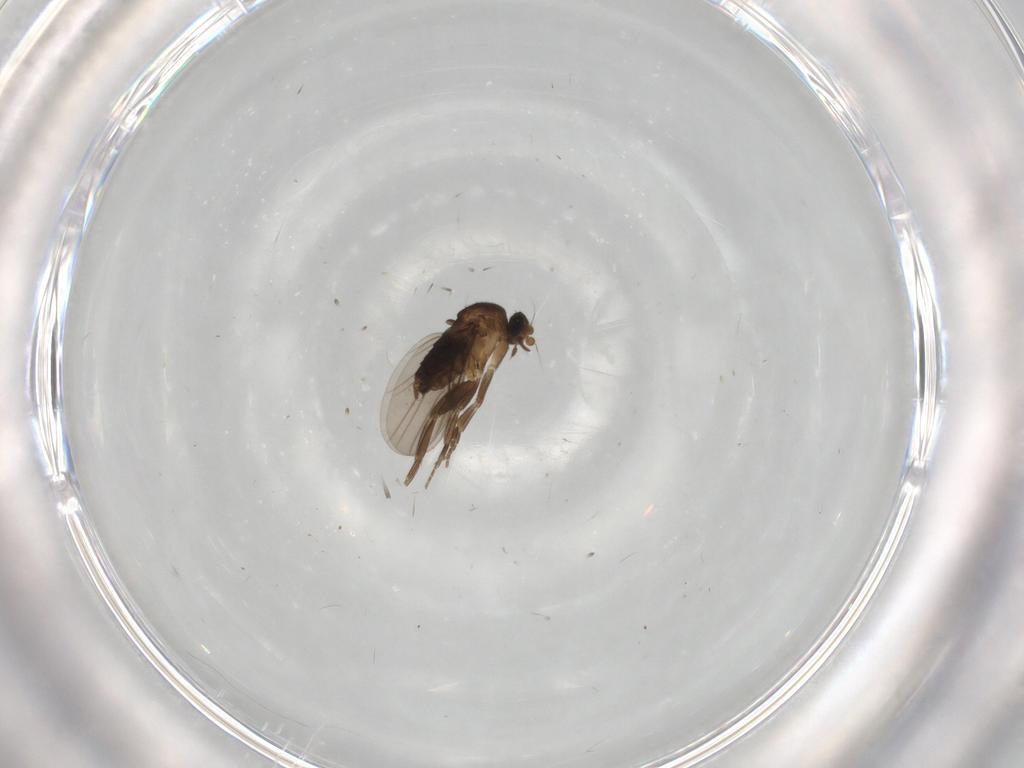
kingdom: Animalia
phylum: Arthropoda
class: Insecta
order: Diptera
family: Phoridae
